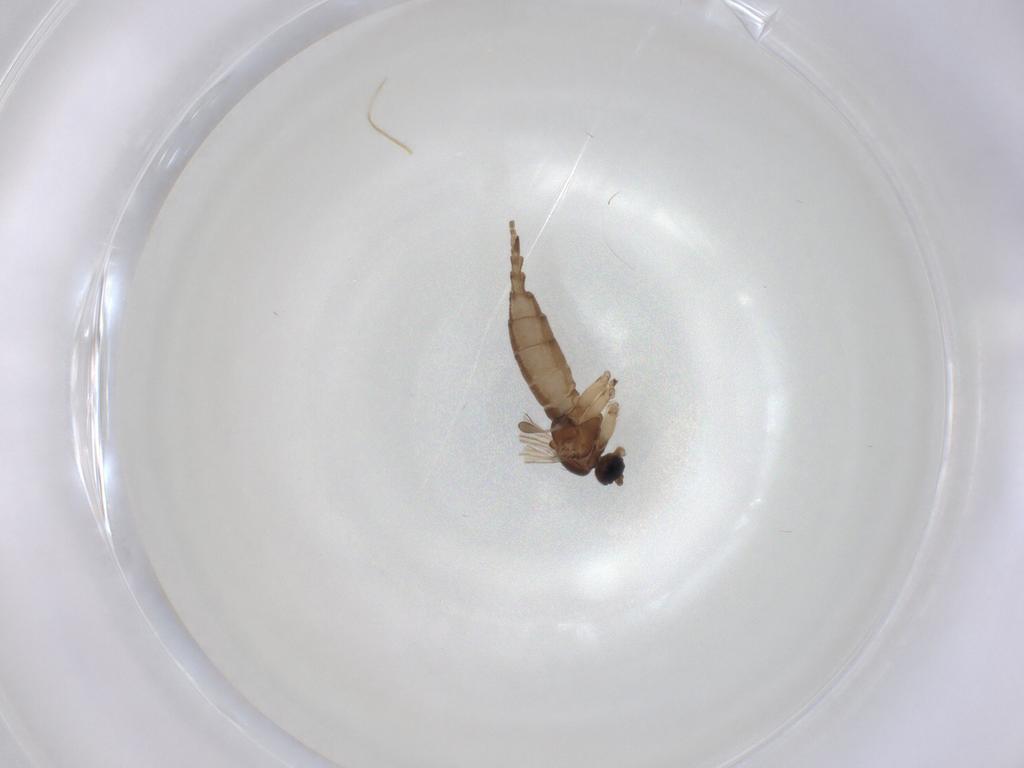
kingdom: Animalia
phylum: Arthropoda
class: Insecta
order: Diptera
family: Sciaridae
